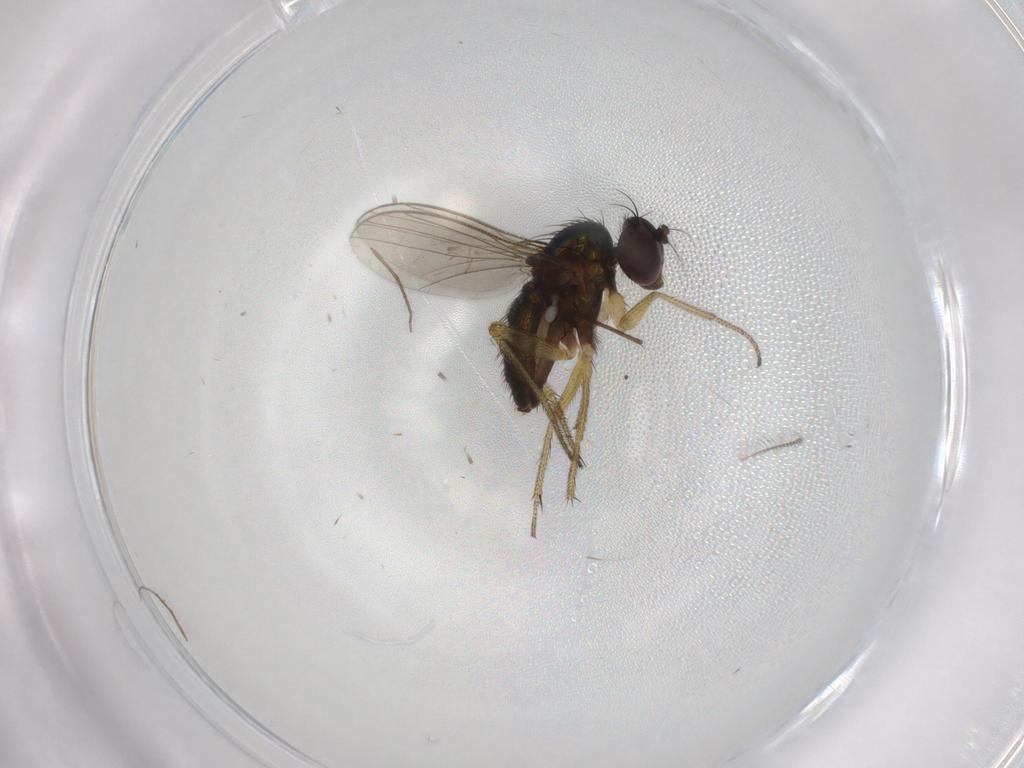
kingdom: Animalia
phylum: Arthropoda
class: Insecta
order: Diptera
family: Chironomidae
